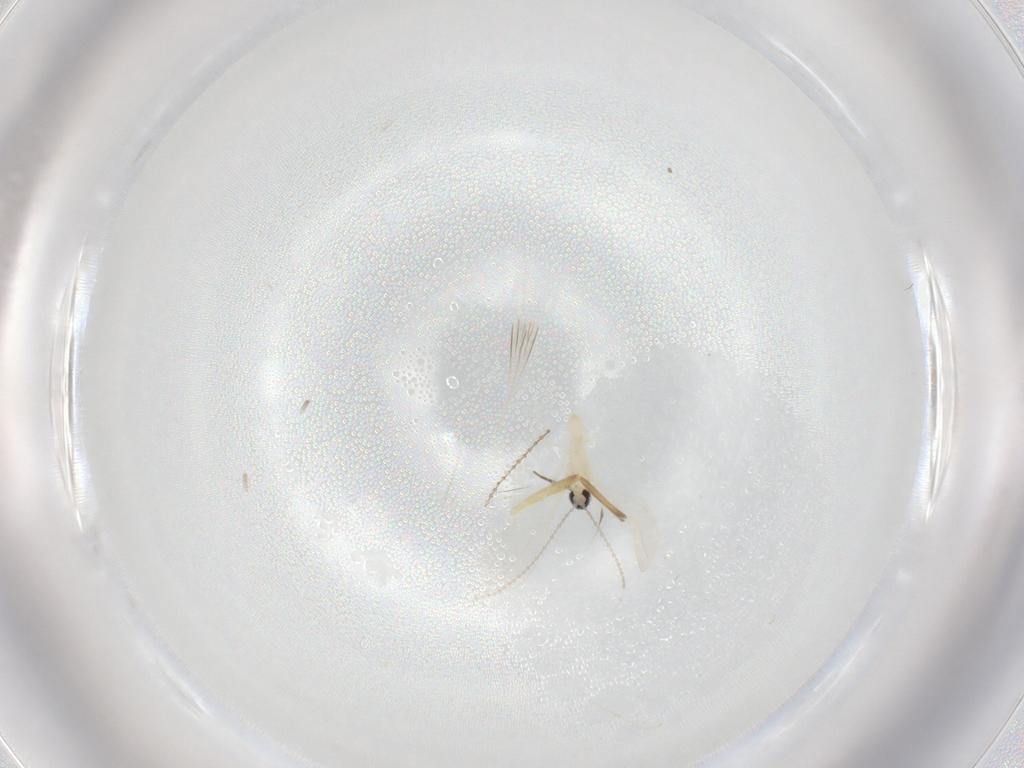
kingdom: Animalia
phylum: Arthropoda
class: Insecta
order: Diptera
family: Cecidomyiidae
